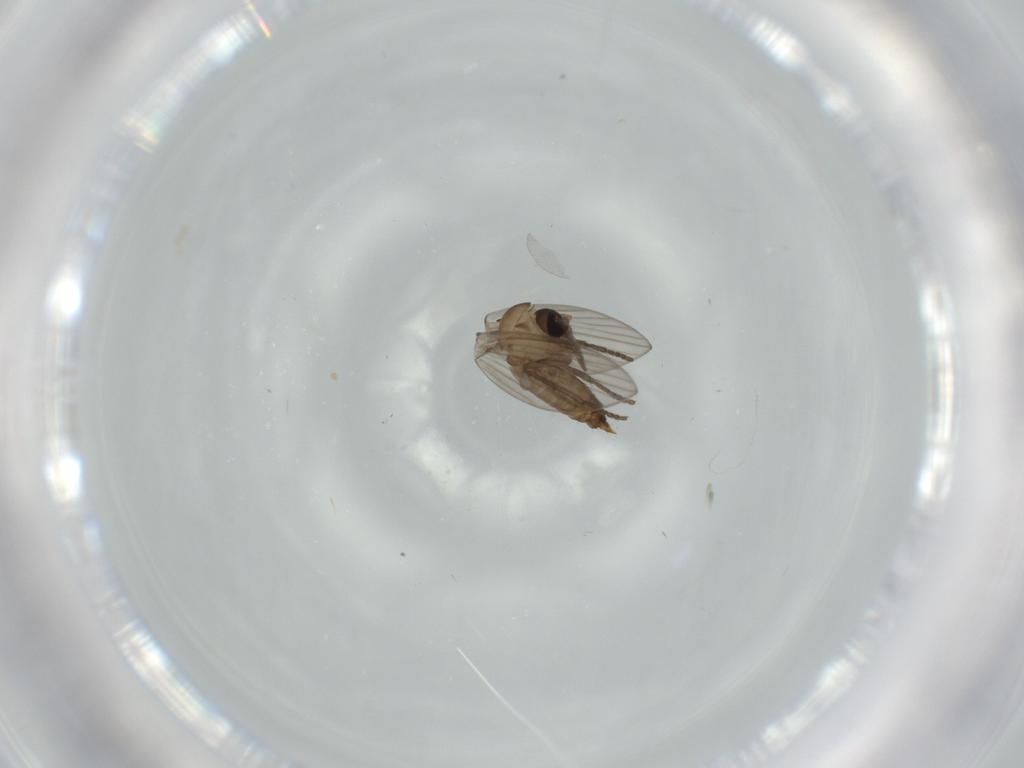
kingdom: Animalia
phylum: Arthropoda
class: Insecta
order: Diptera
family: Psychodidae
